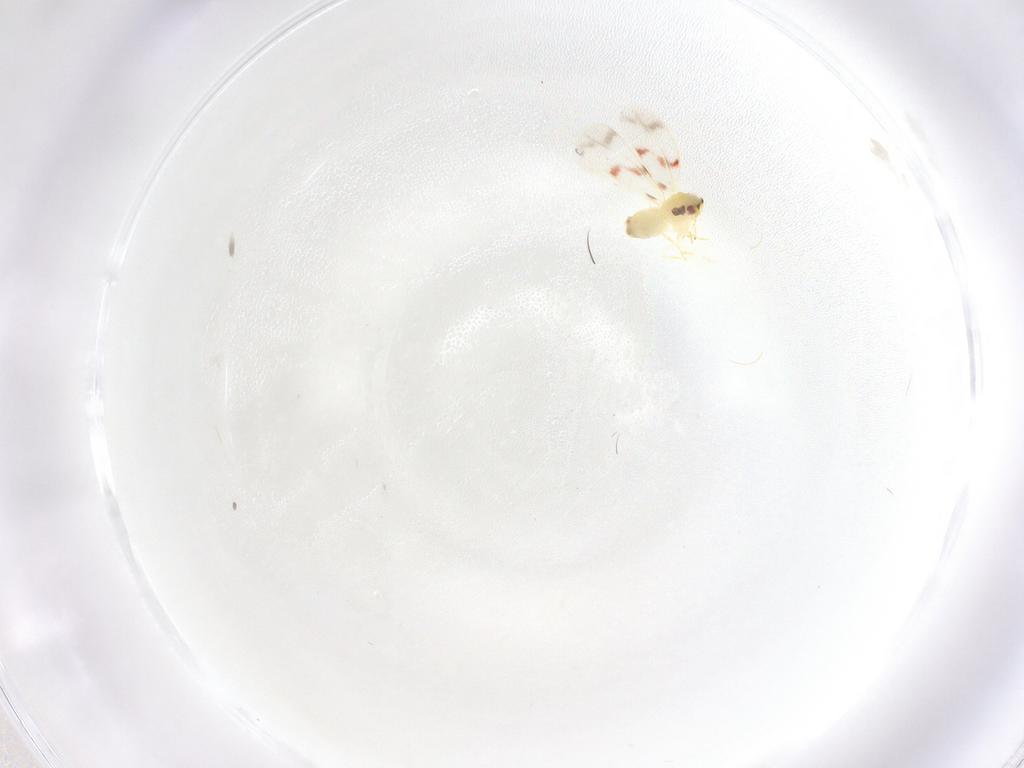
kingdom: Animalia
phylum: Arthropoda
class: Insecta
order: Hemiptera
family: Aleyrodidae
